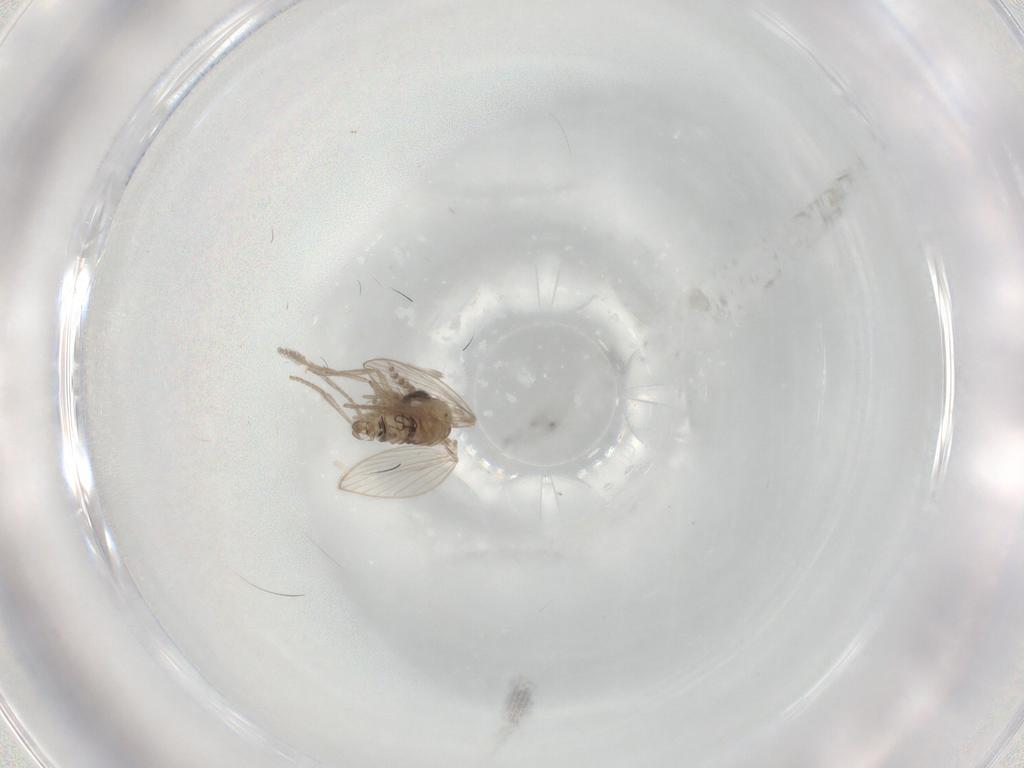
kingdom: Animalia
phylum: Arthropoda
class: Insecta
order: Diptera
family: Psychodidae
